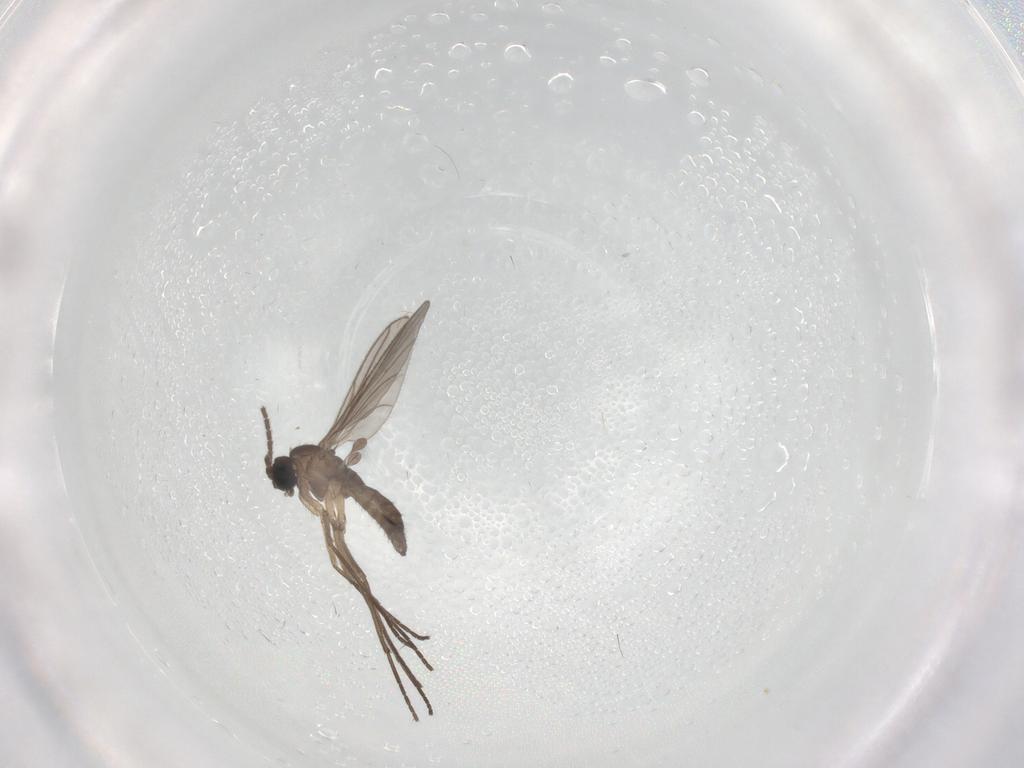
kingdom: Animalia
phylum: Arthropoda
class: Insecta
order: Diptera
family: Sciaridae
